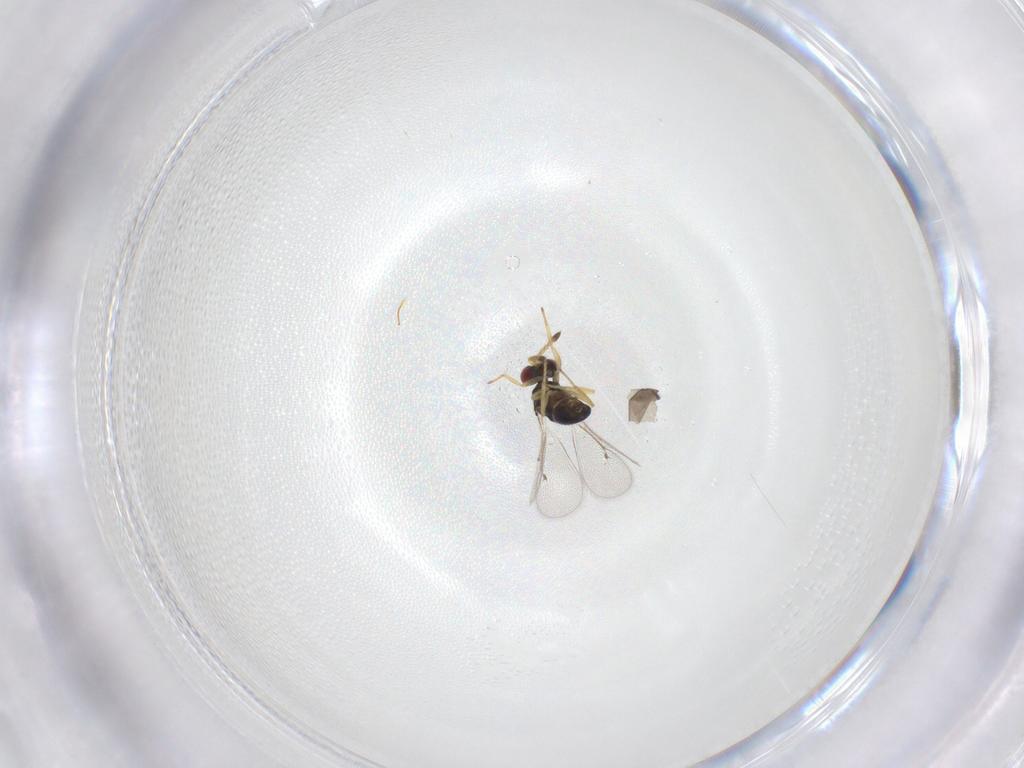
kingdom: Animalia
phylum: Arthropoda
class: Insecta
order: Hymenoptera
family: Eulophidae
